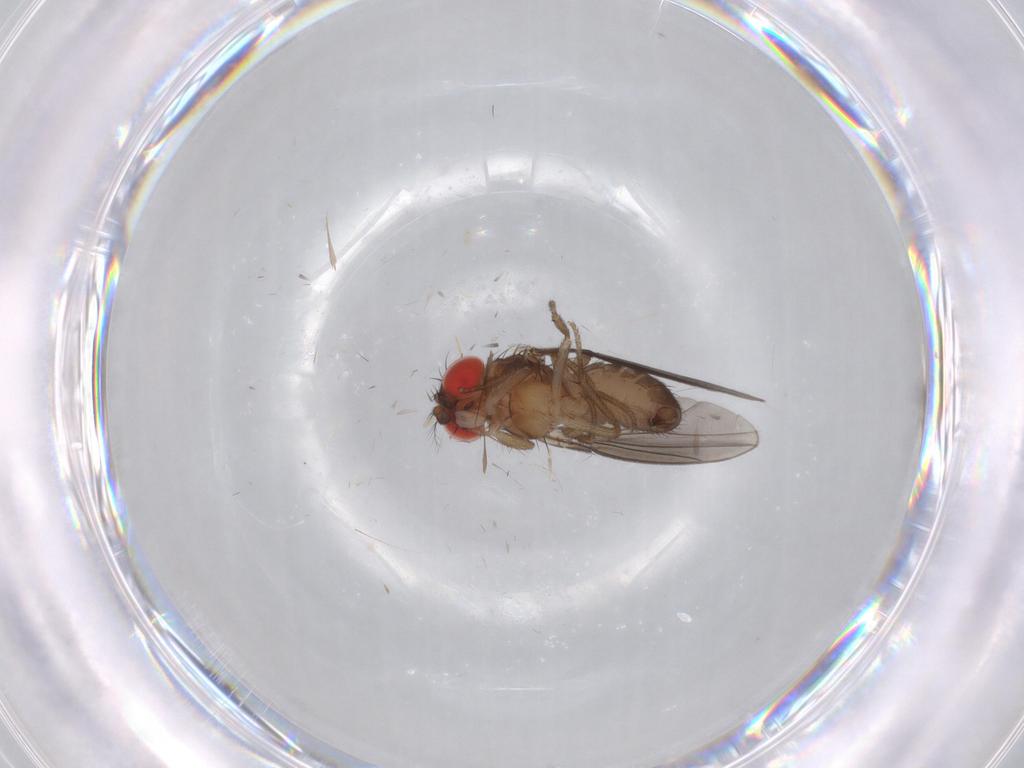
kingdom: Animalia
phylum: Arthropoda
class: Insecta
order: Diptera
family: Drosophilidae
